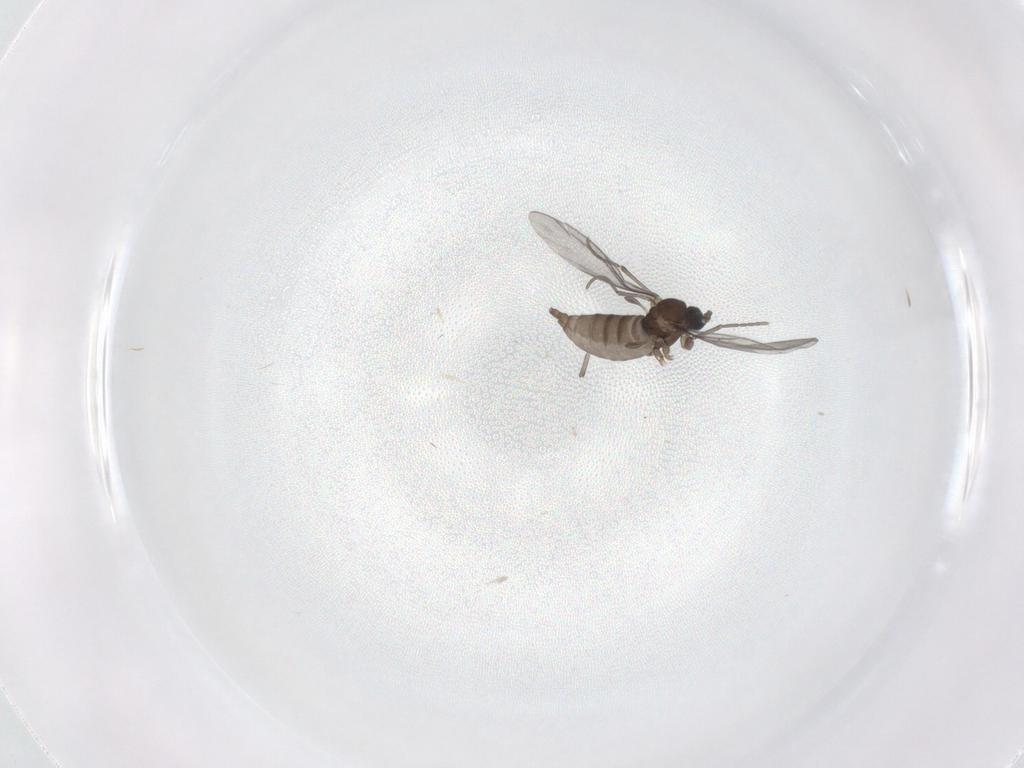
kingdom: Animalia
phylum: Arthropoda
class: Insecta
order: Diptera
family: Sciaridae
